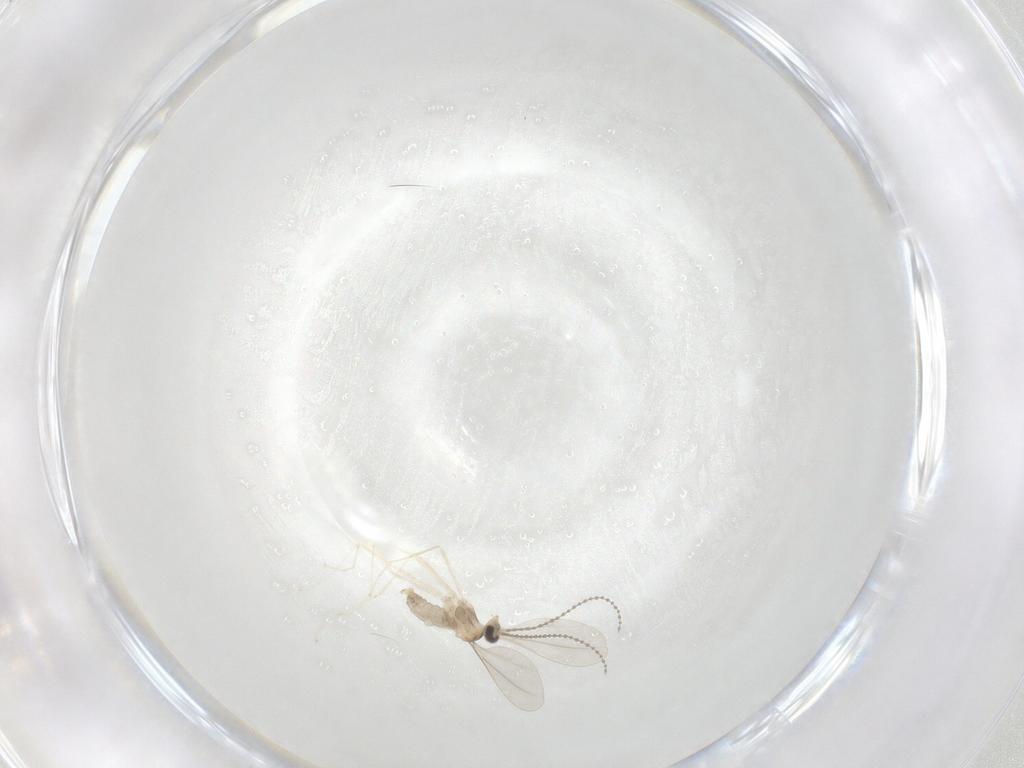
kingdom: Animalia
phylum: Arthropoda
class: Insecta
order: Diptera
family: Cecidomyiidae
